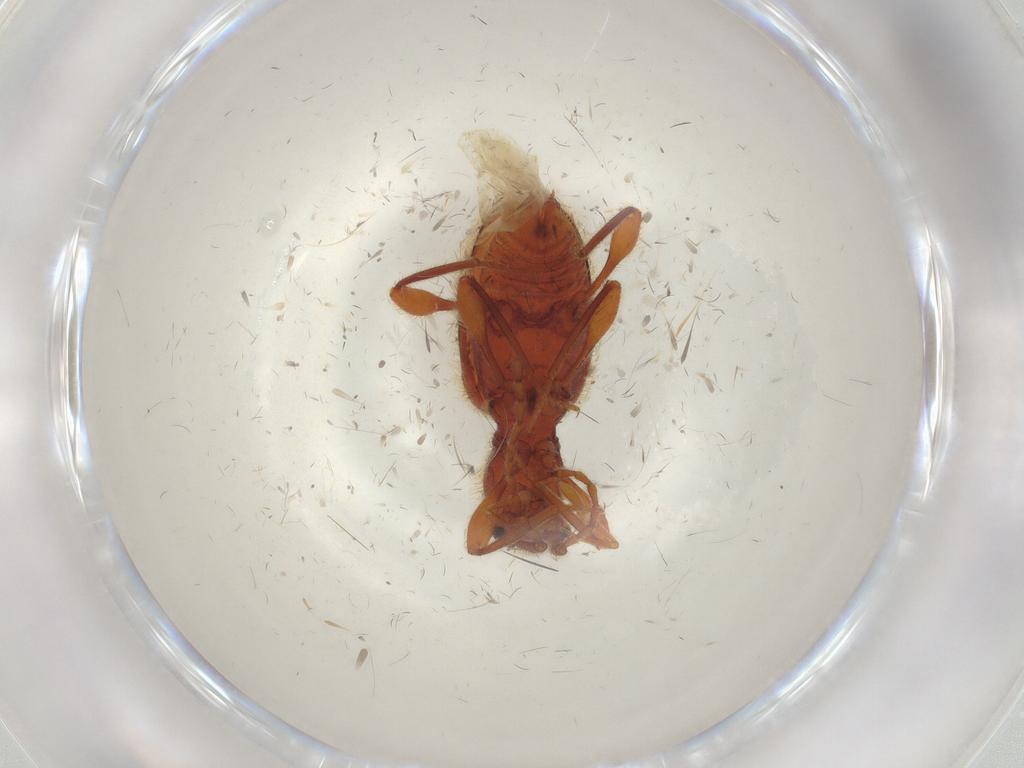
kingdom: Animalia
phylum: Arthropoda
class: Insecta
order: Coleoptera
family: Staphylinidae
